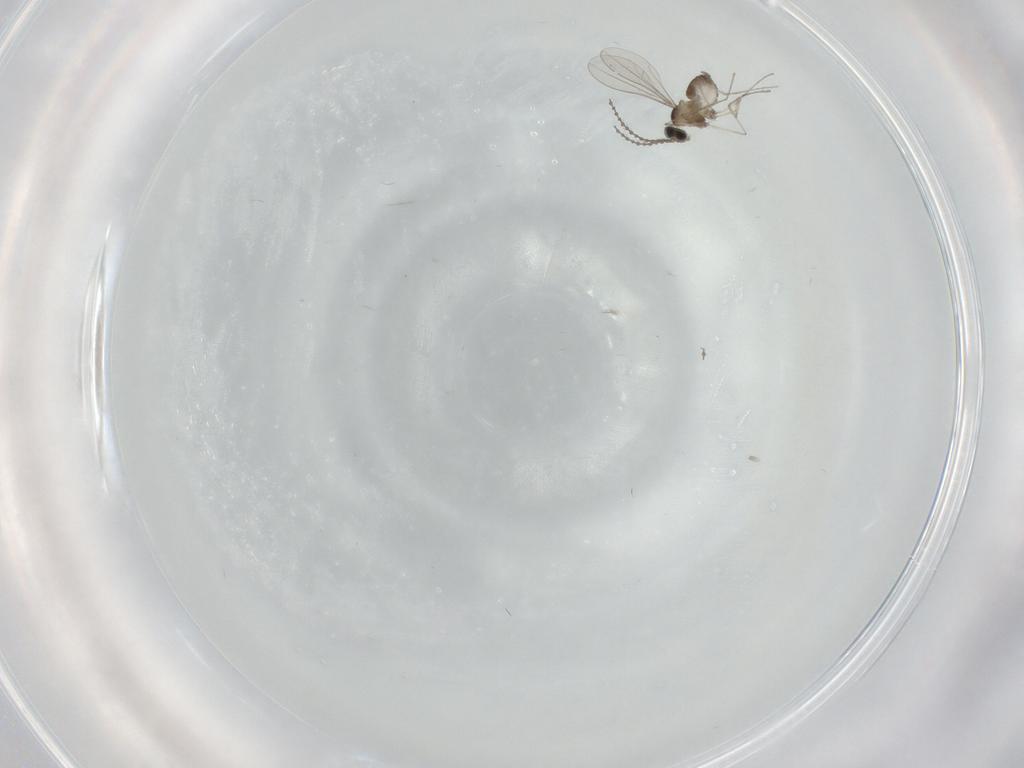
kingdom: Animalia
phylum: Arthropoda
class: Insecta
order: Diptera
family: Cecidomyiidae
